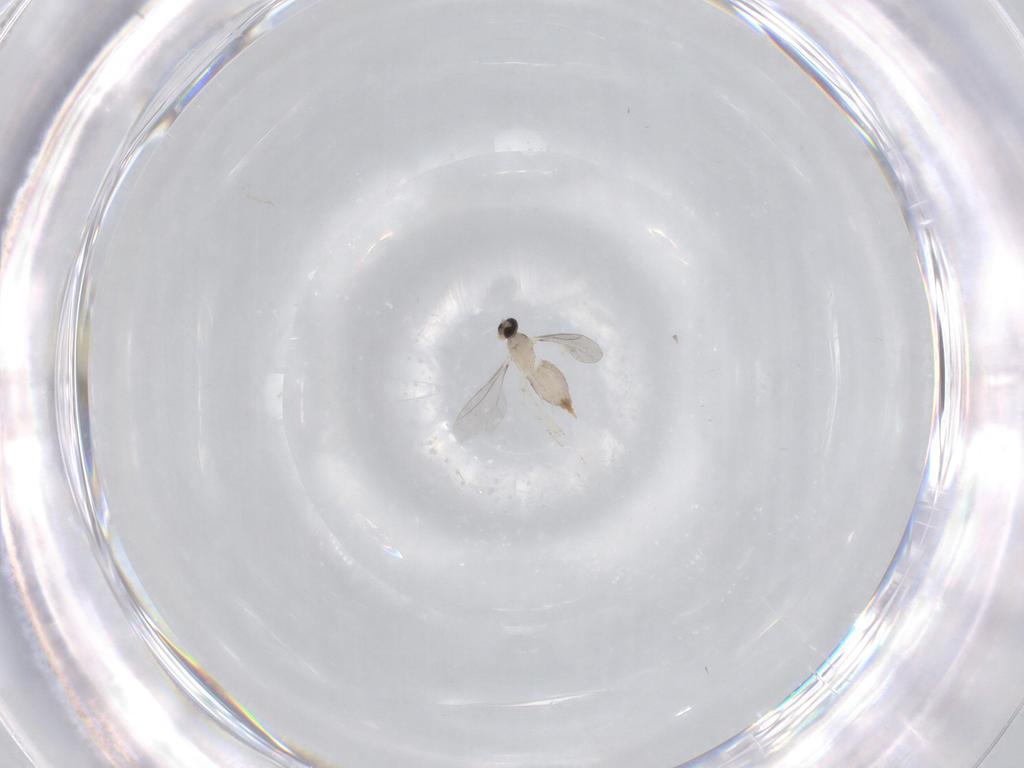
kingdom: Animalia
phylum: Arthropoda
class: Insecta
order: Diptera
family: Cecidomyiidae
